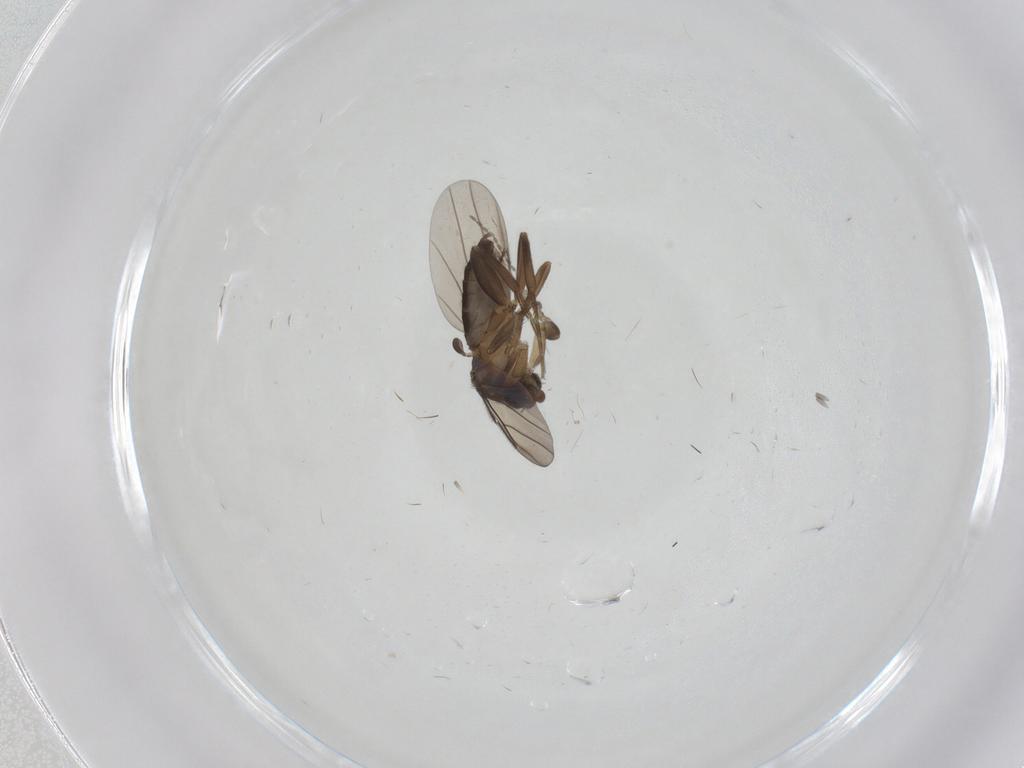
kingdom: Animalia
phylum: Arthropoda
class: Insecta
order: Diptera
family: Cecidomyiidae
